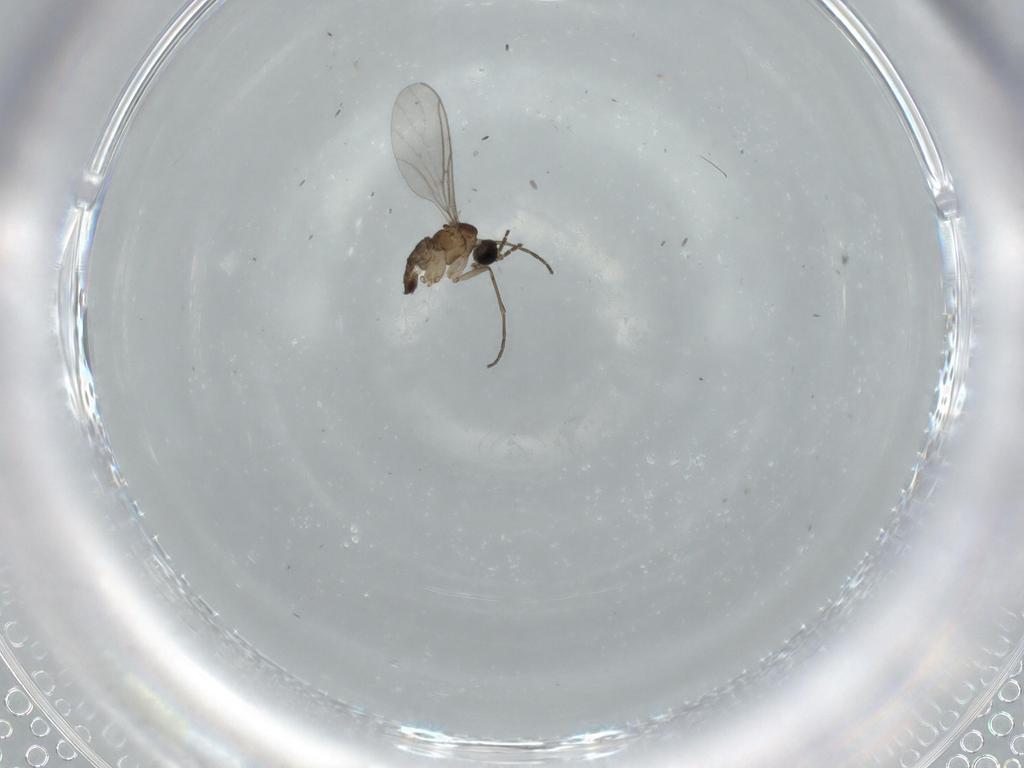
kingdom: Animalia
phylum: Arthropoda
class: Insecta
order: Diptera
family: Sciaridae
